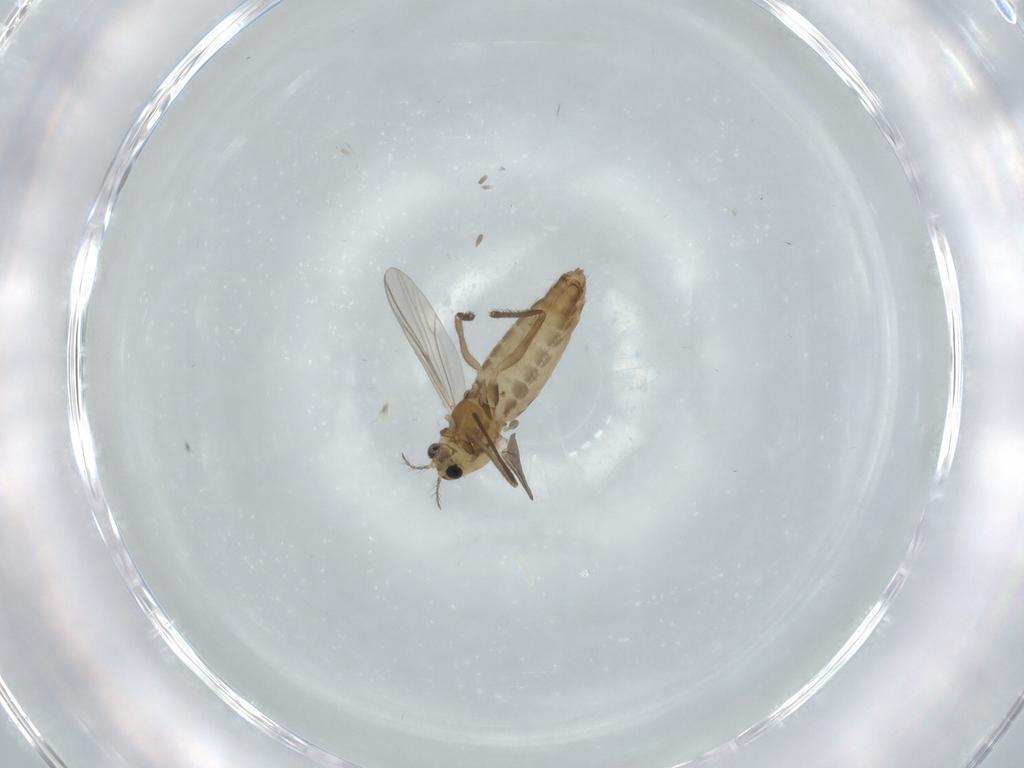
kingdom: Animalia
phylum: Arthropoda
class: Insecta
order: Diptera
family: Chironomidae
